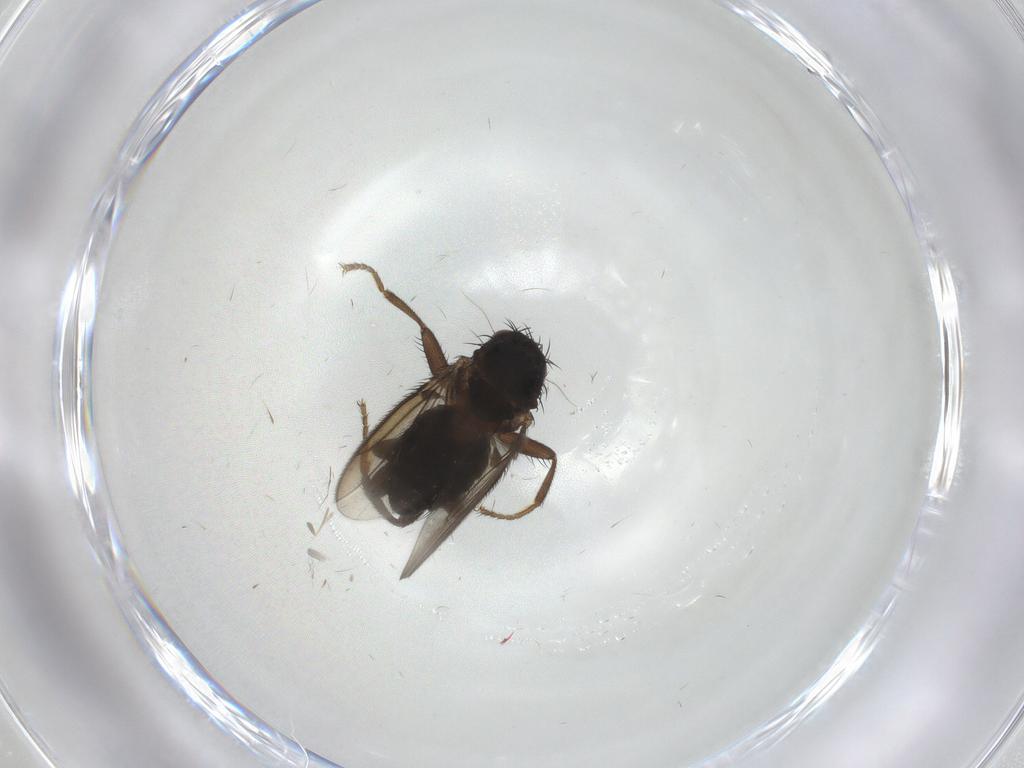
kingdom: Animalia
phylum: Arthropoda
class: Insecta
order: Diptera
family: Sphaeroceridae
